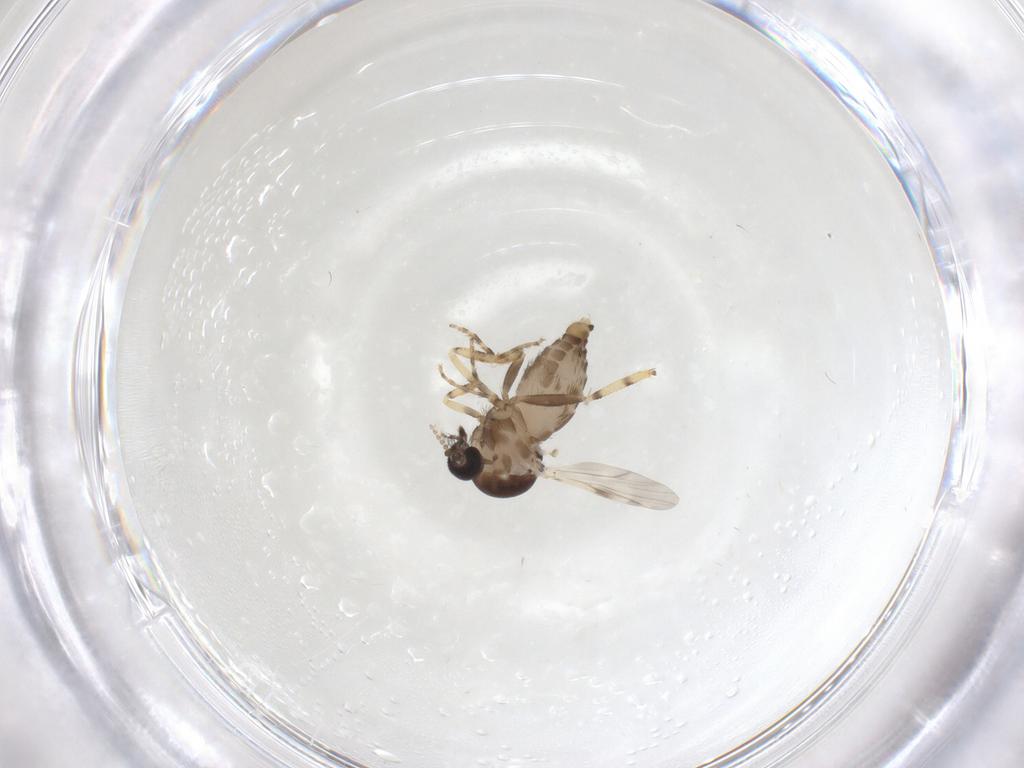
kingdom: Animalia
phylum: Arthropoda
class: Insecta
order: Diptera
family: Ceratopogonidae
